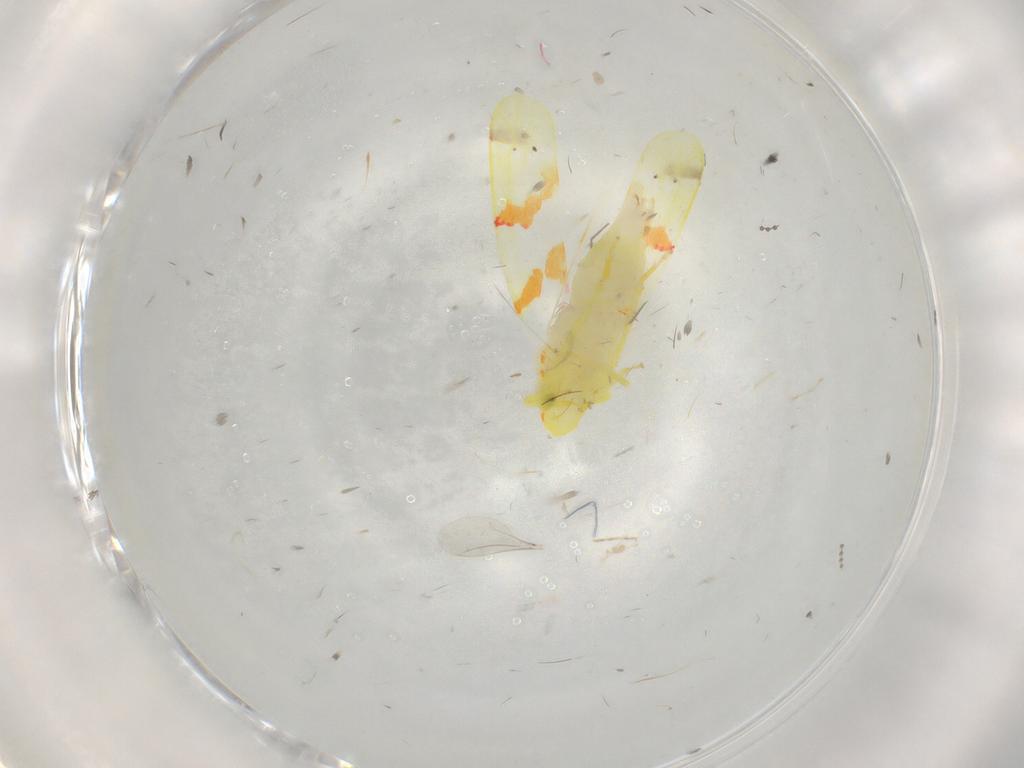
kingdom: Animalia
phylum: Arthropoda
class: Insecta
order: Hemiptera
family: Cicadellidae
